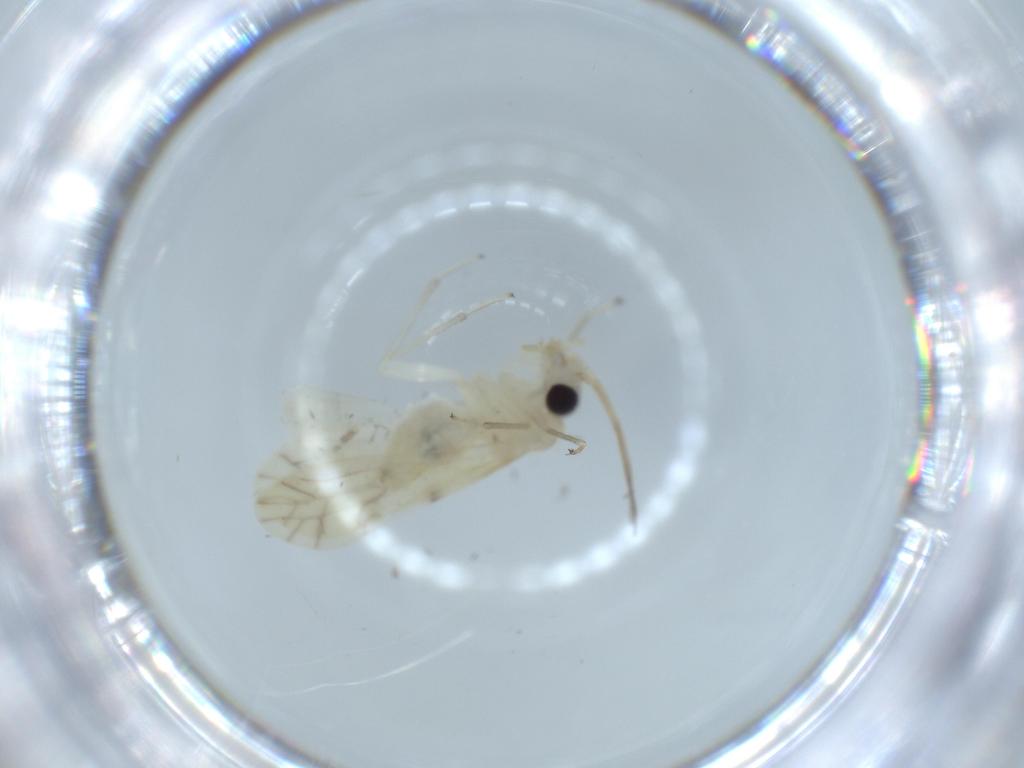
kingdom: Animalia
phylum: Arthropoda
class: Insecta
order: Psocodea
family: Caeciliusidae
